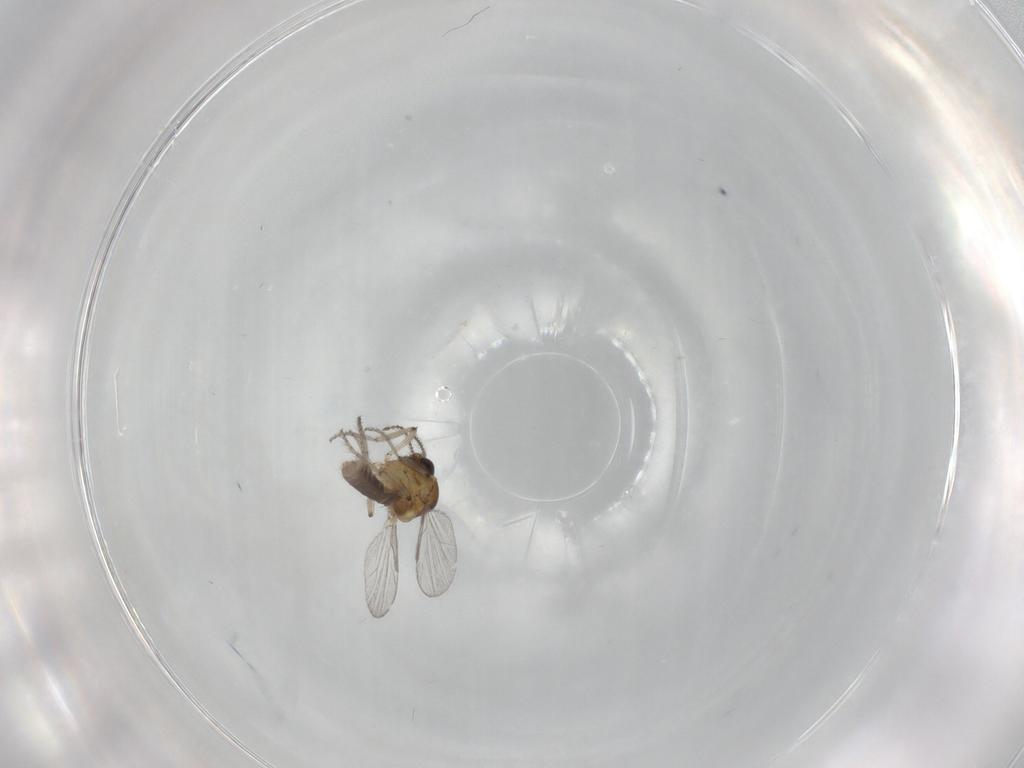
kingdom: Animalia
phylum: Arthropoda
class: Insecta
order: Diptera
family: Ceratopogonidae
